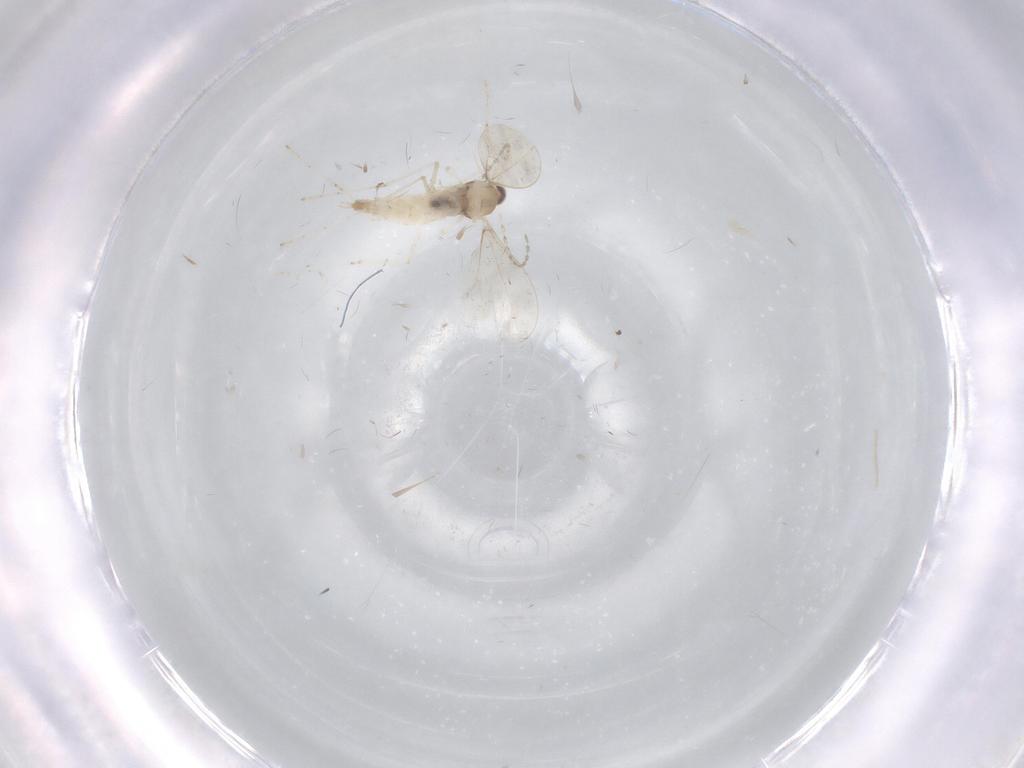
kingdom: Animalia
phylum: Arthropoda
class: Insecta
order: Diptera
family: Cecidomyiidae
